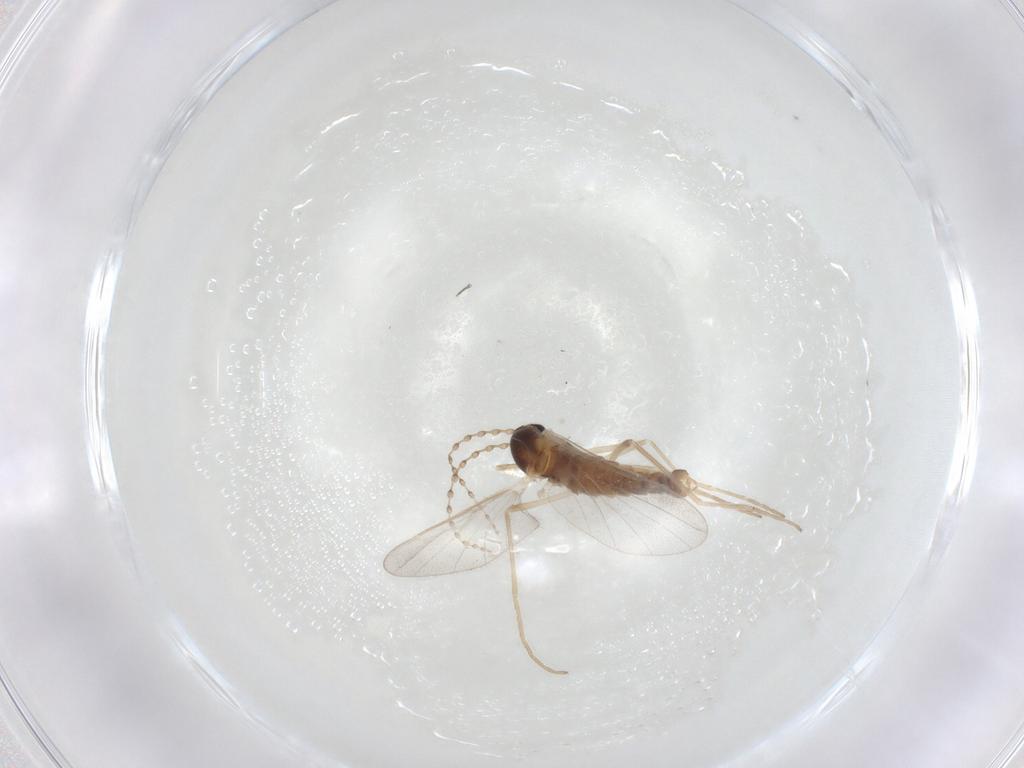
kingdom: Animalia
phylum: Arthropoda
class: Insecta
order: Diptera
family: Cecidomyiidae
